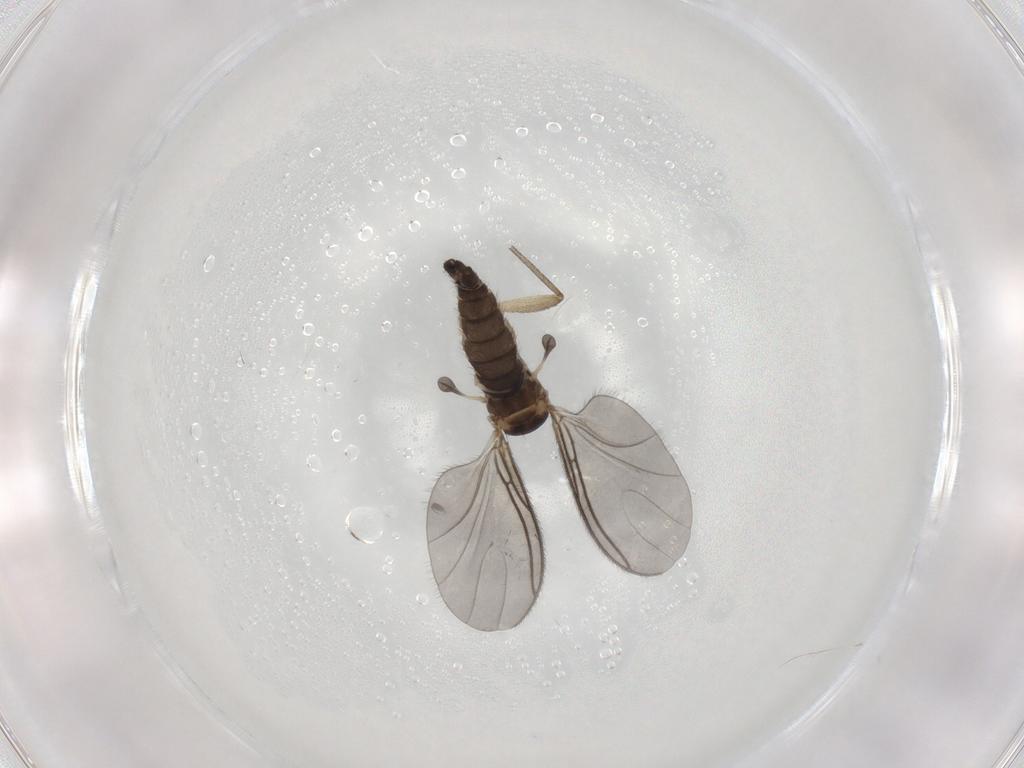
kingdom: Animalia
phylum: Arthropoda
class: Insecta
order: Diptera
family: Sciaridae
